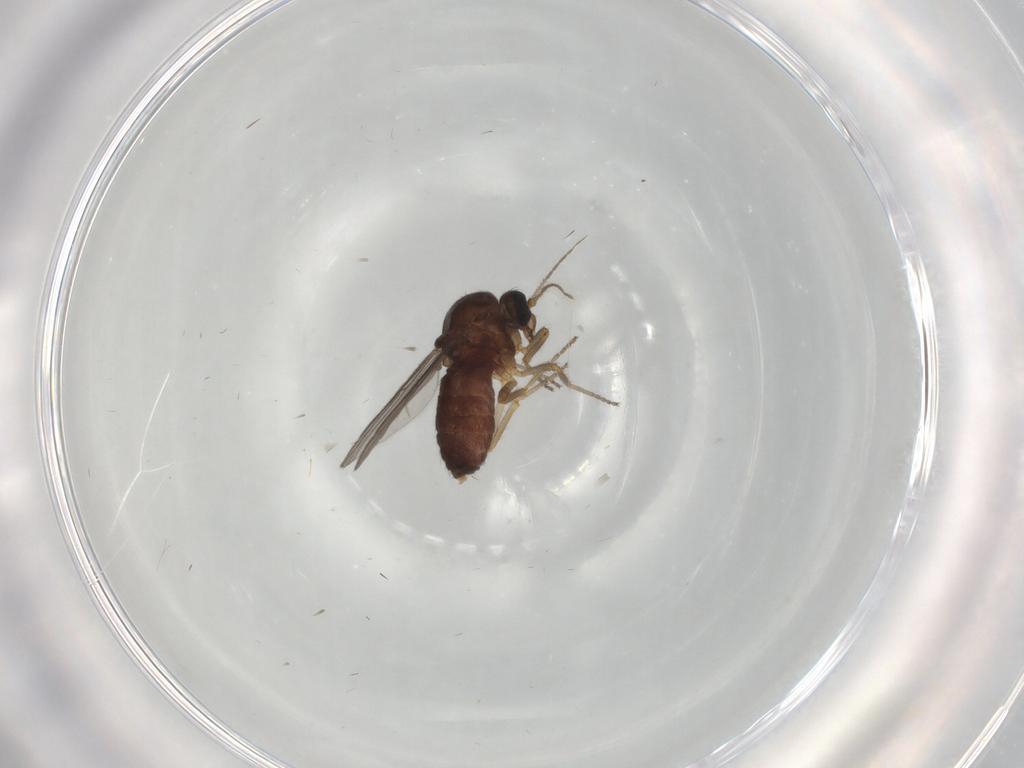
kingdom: Animalia
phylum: Arthropoda
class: Insecta
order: Diptera
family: Ceratopogonidae
